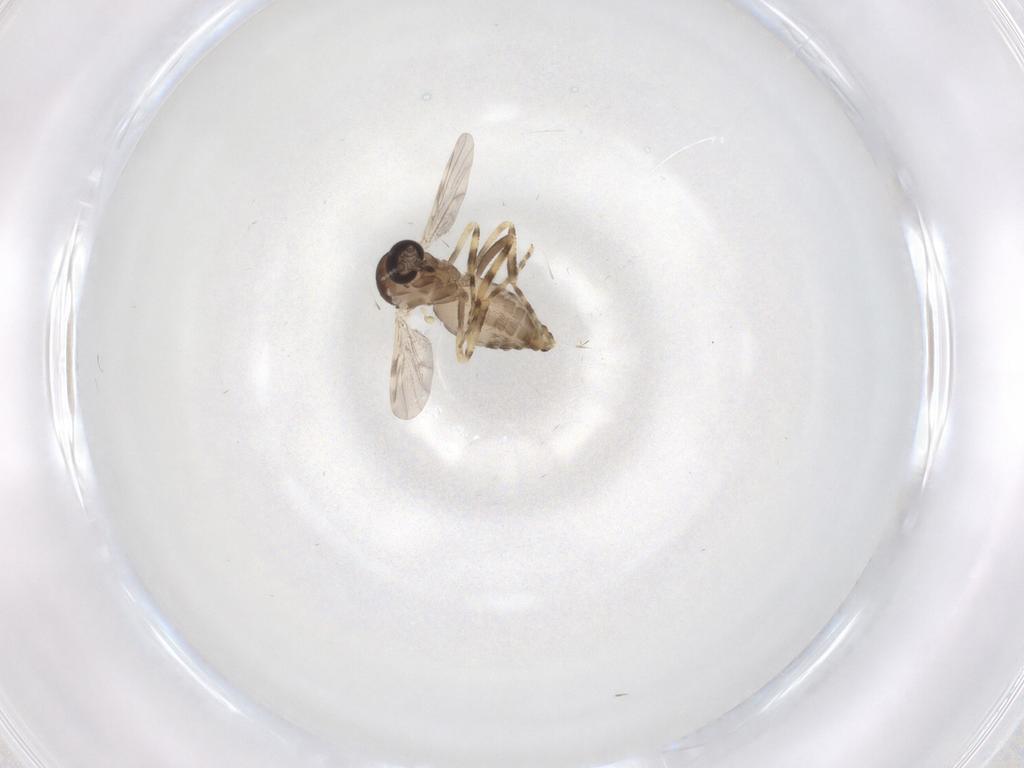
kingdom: Animalia
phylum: Arthropoda
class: Insecta
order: Diptera
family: Ceratopogonidae
